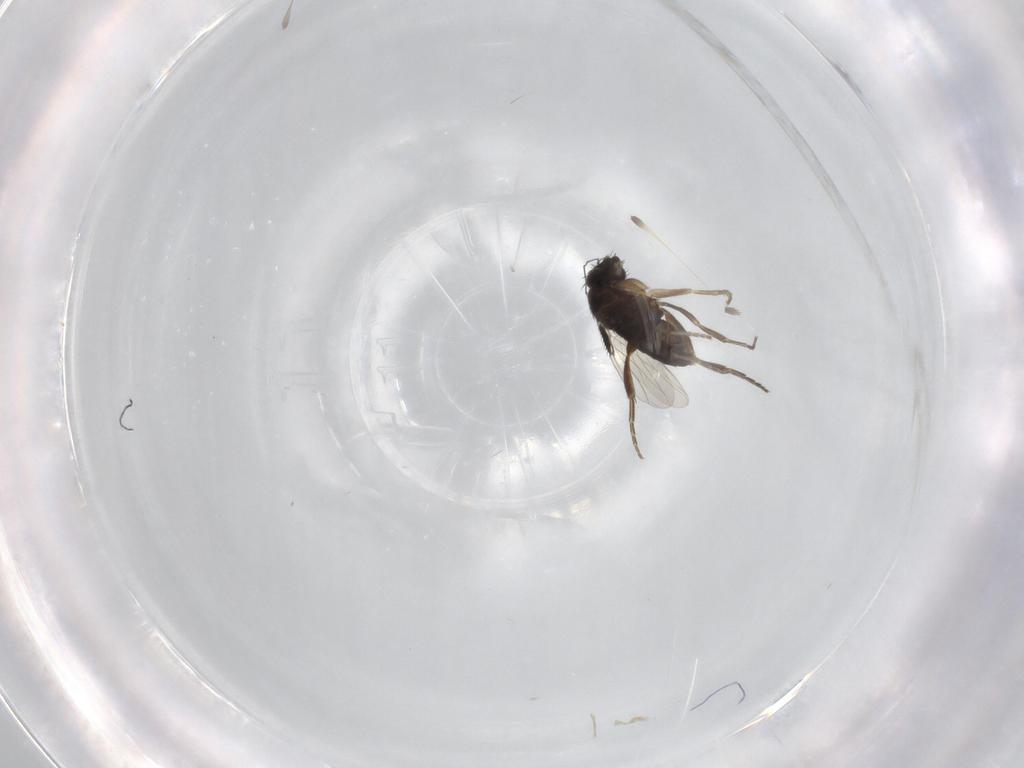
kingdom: Animalia
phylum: Arthropoda
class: Insecta
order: Diptera
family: Phoridae
